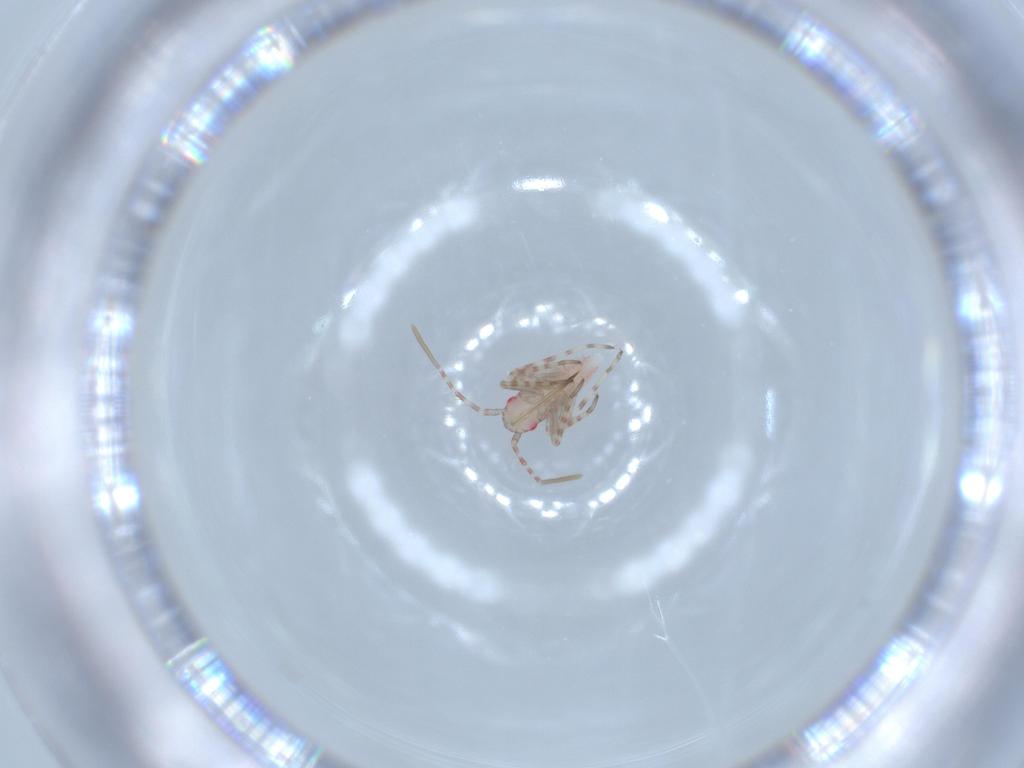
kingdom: Animalia
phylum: Arthropoda
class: Insecta
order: Hemiptera
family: Miridae
